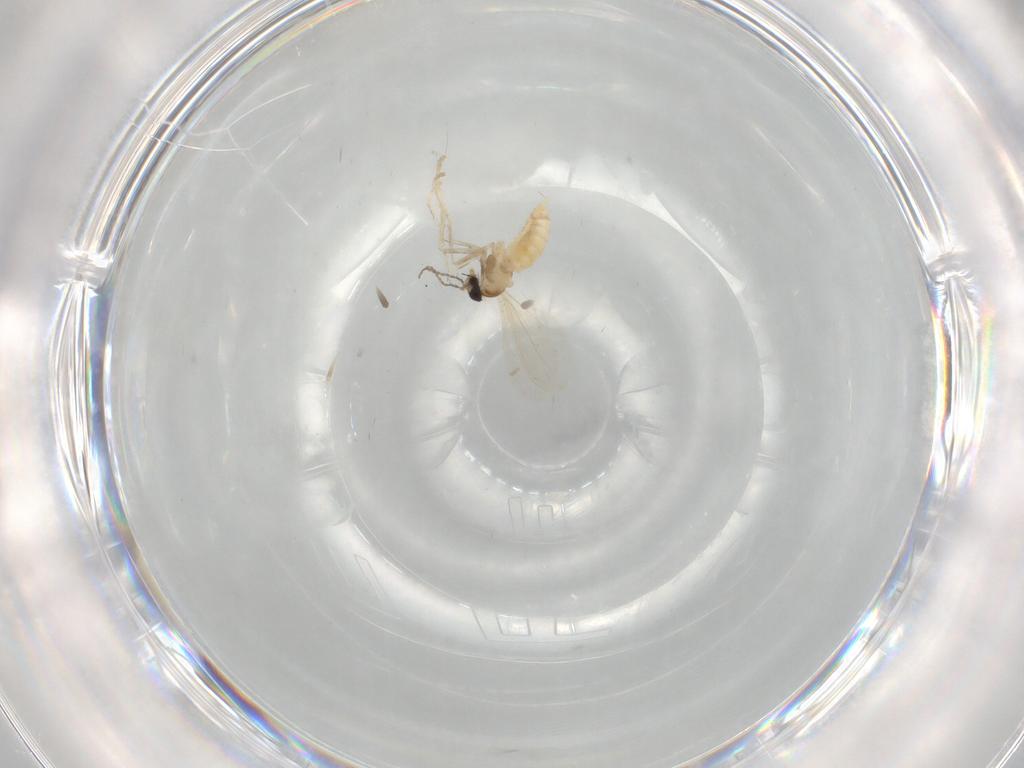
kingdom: Animalia
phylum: Arthropoda
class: Insecta
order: Diptera
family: Cecidomyiidae
